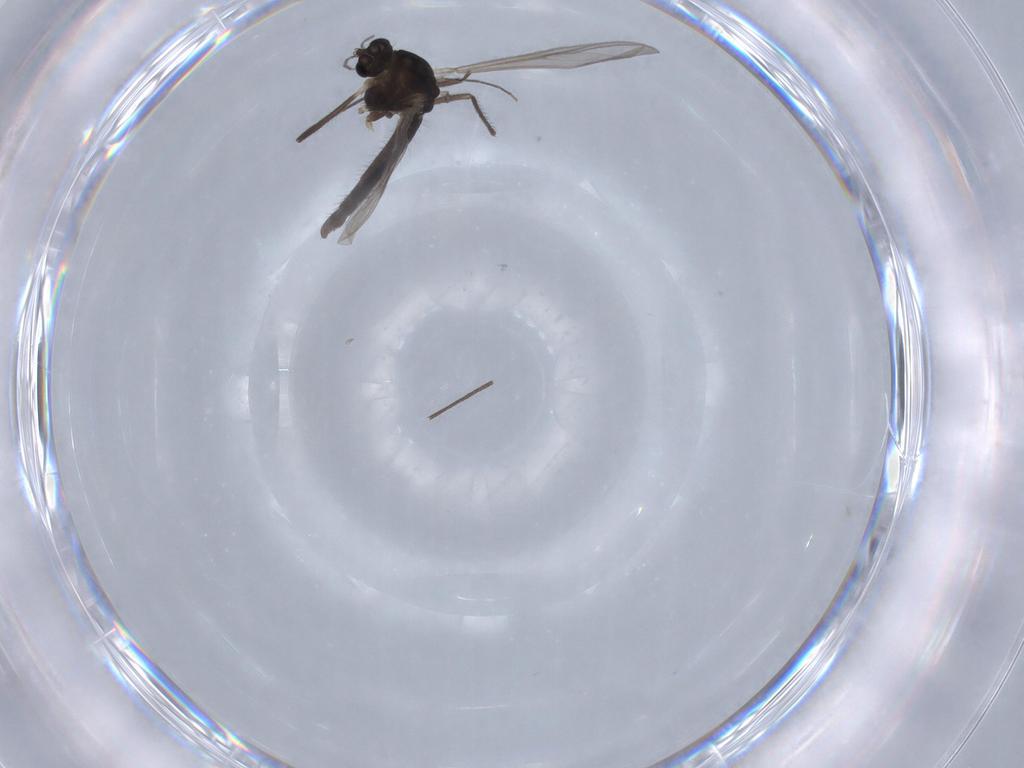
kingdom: Animalia
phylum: Arthropoda
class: Insecta
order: Diptera
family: Chironomidae
